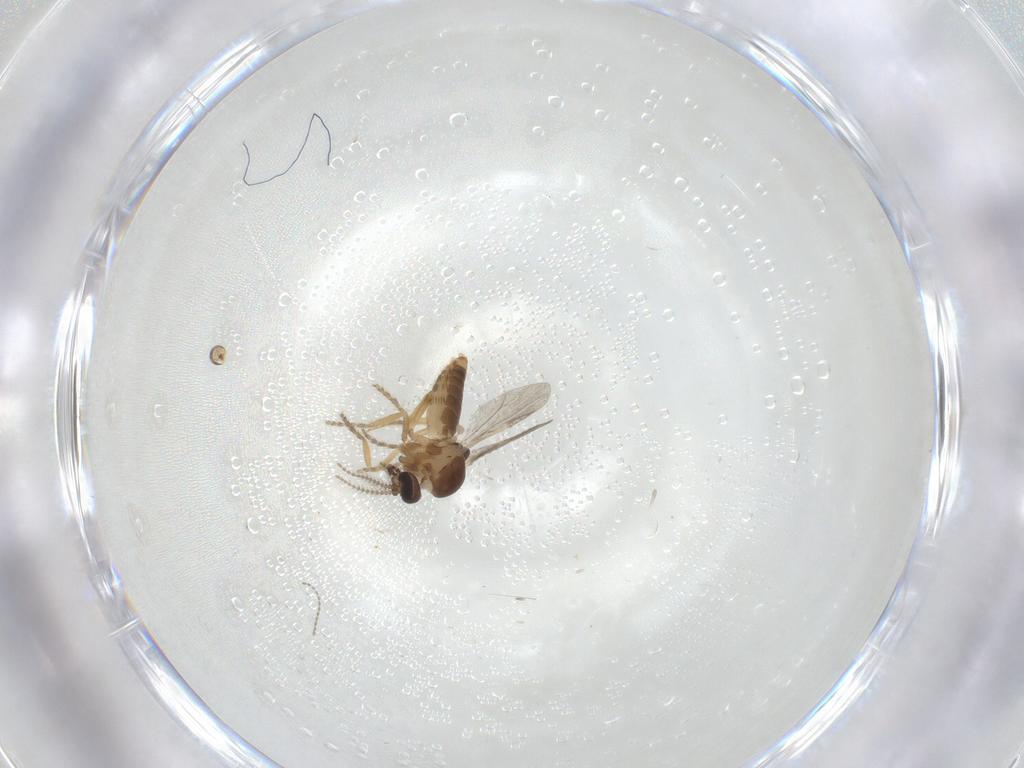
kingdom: Animalia
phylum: Arthropoda
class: Insecta
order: Diptera
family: Ceratopogonidae
